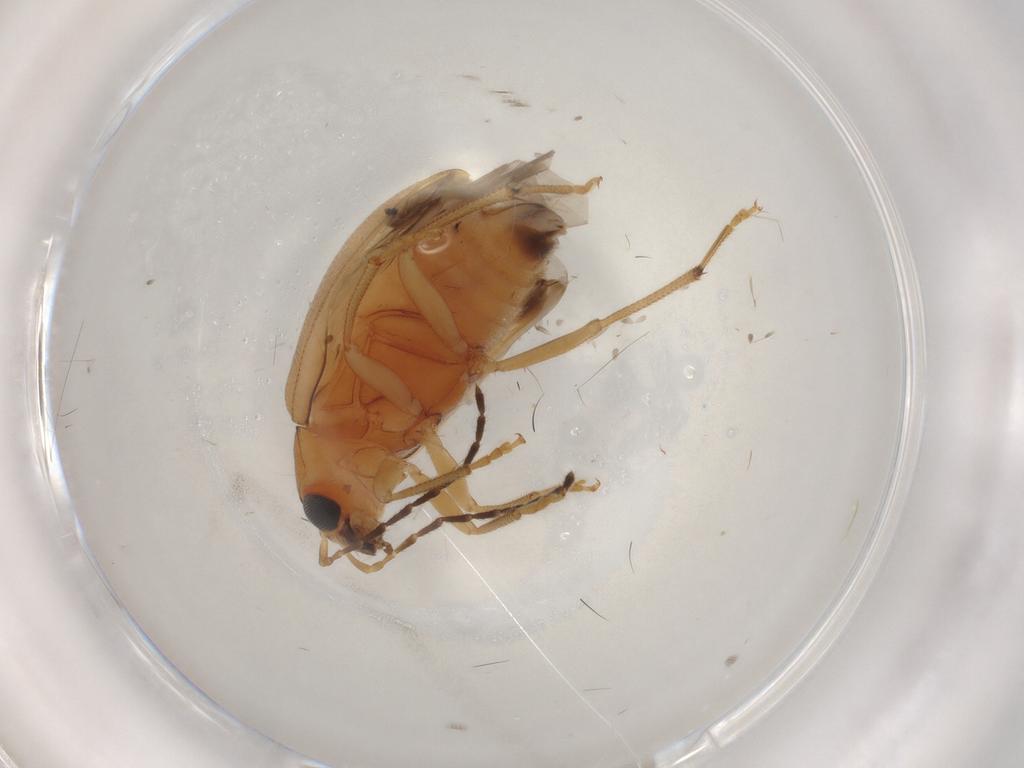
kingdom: Animalia
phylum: Arthropoda
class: Insecta
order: Coleoptera
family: Chrysomelidae
